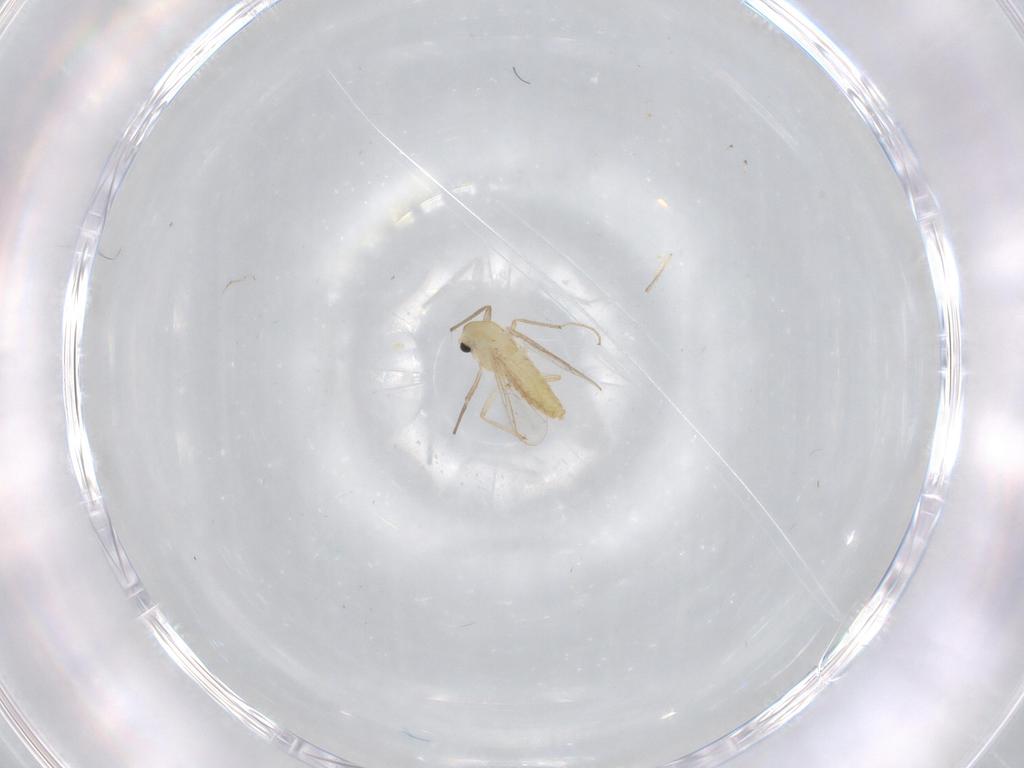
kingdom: Animalia
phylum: Arthropoda
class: Insecta
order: Diptera
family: Chironomidae
